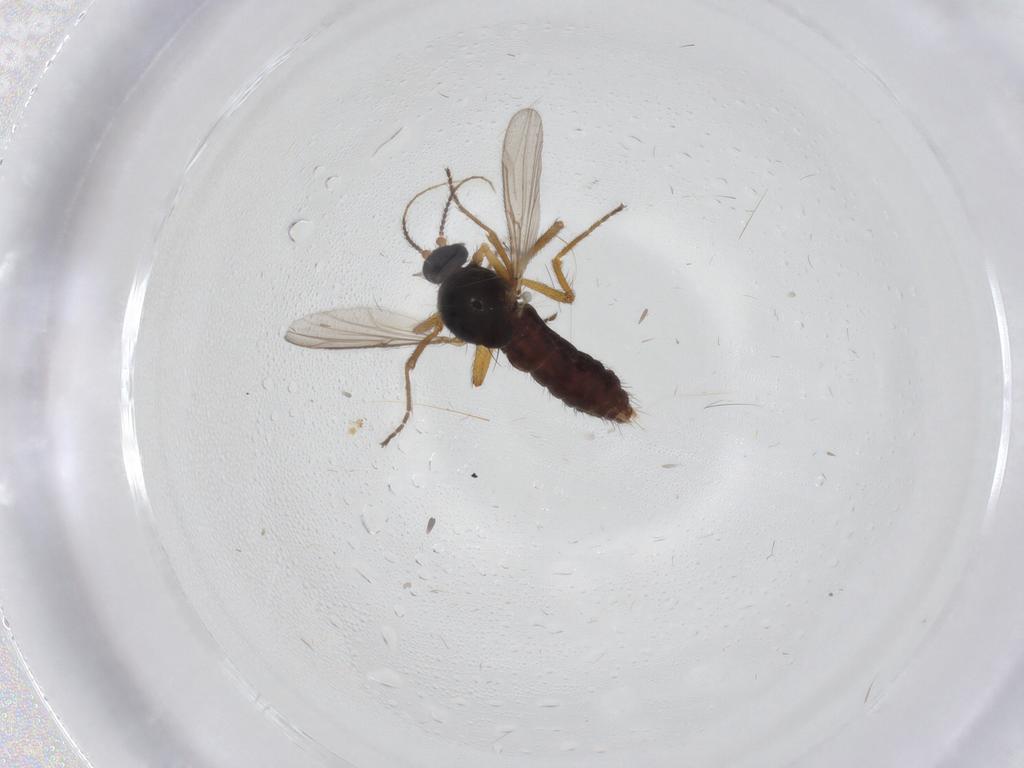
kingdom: Animalia
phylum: Arthropoda
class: Insecta
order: Diptera
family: Ceratopogonidae
